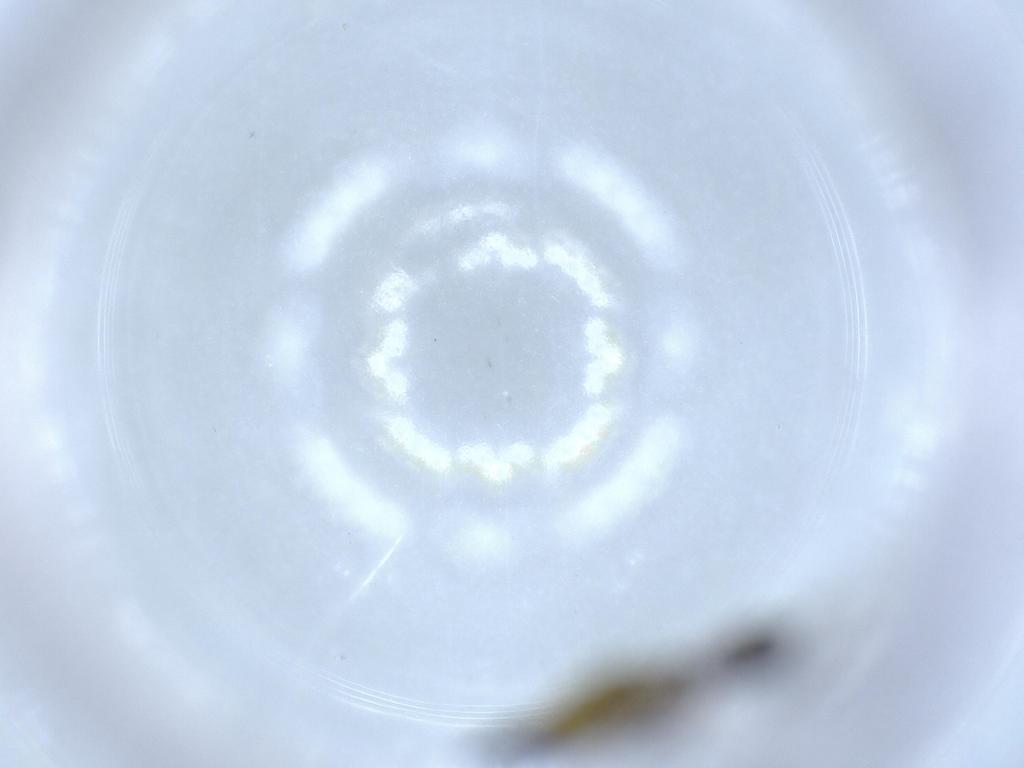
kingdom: Animalia
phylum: Arthropoda
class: Insecta
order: Diptera
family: Sciaridae
